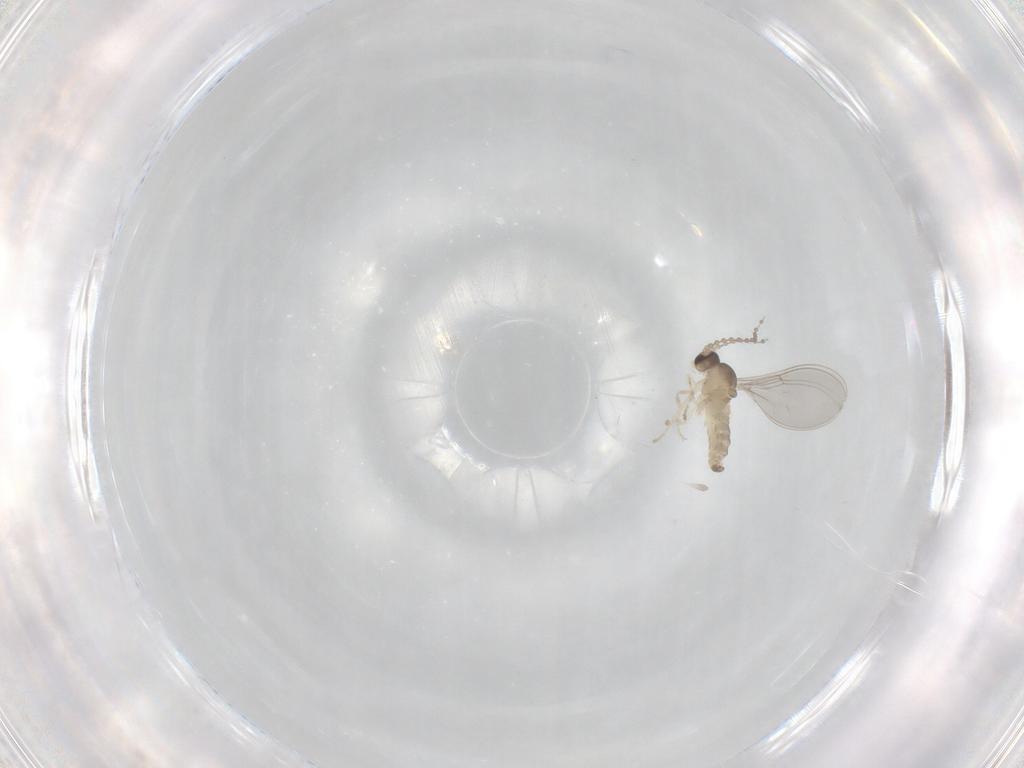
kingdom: Animalia
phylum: Arthropoda
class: Insecta
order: Diptera
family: Cecidomyiidae
